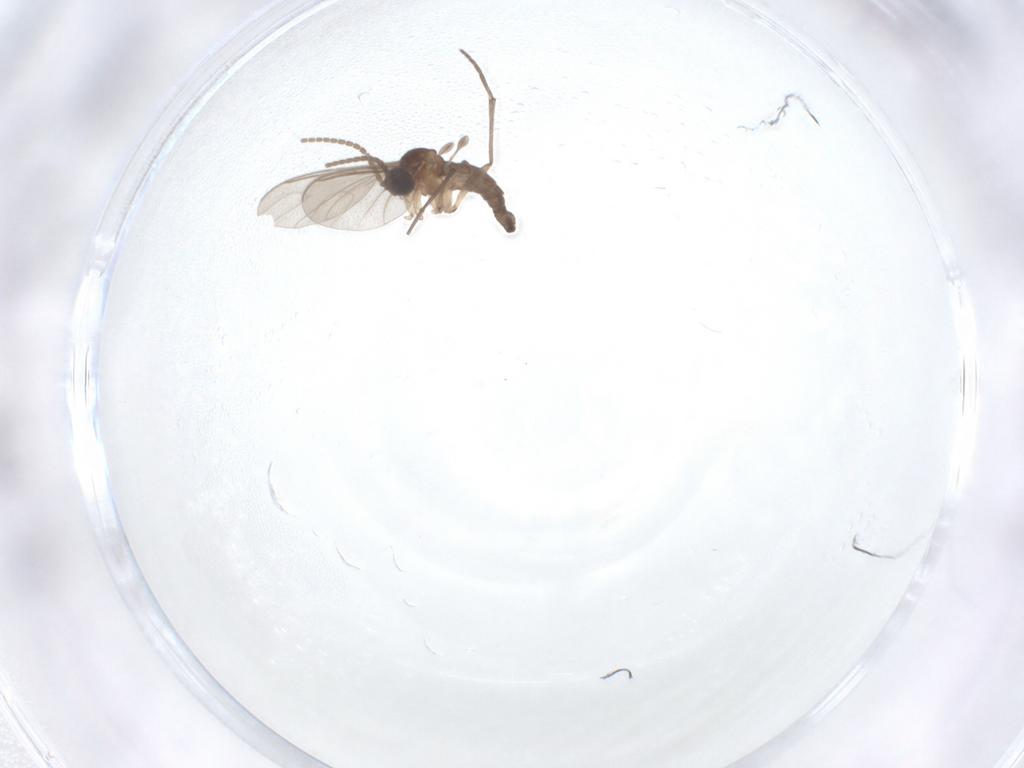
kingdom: Animalia
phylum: Arthropoda
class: Insecta
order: Diptera
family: Sciaridae
